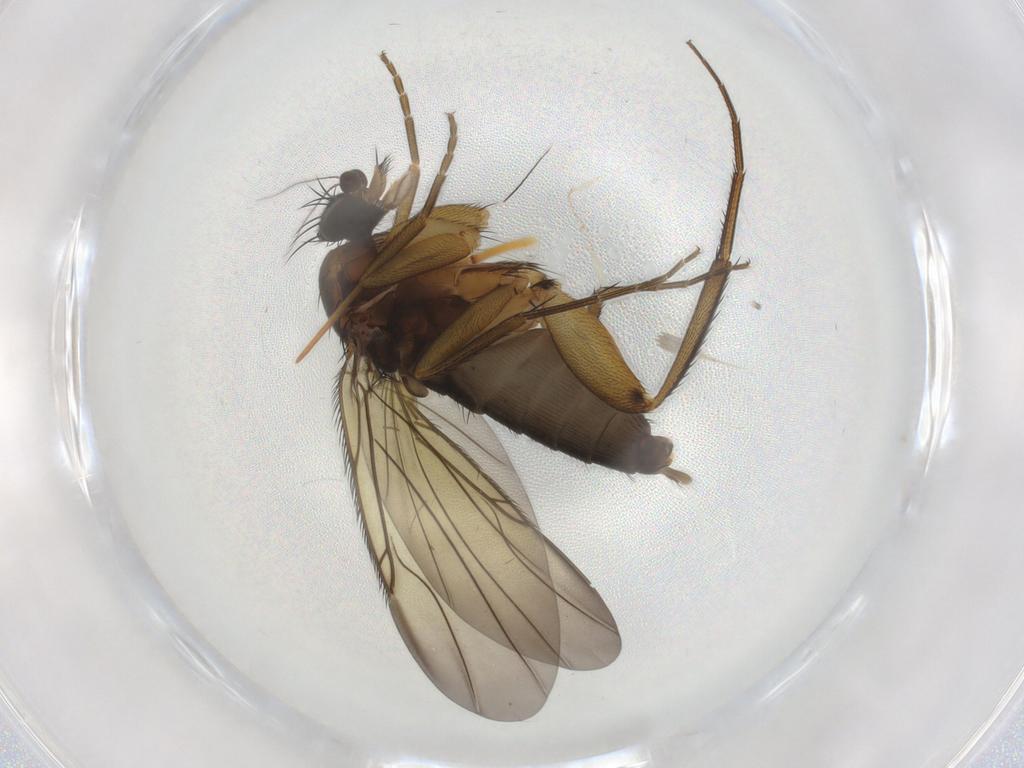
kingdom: Animalia
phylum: Arthropoda
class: Insecta
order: Diptera
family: Phoridae
